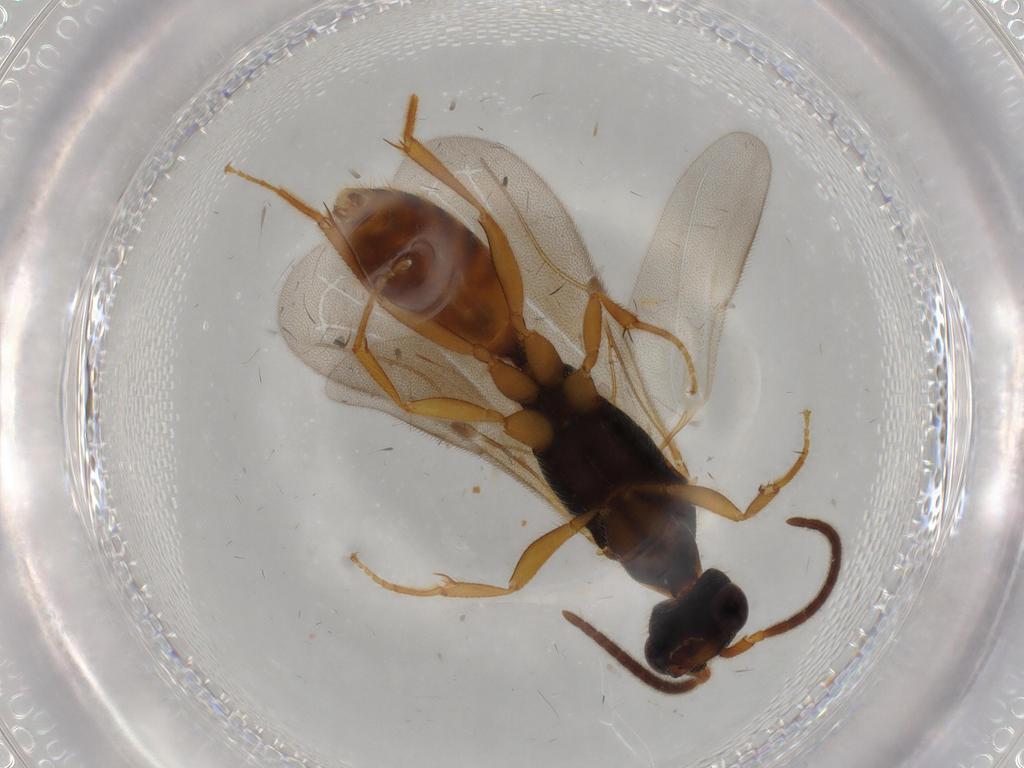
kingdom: Animalia
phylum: Arthropoda
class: Insecta
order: Hymenoptera
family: Bethylidae
